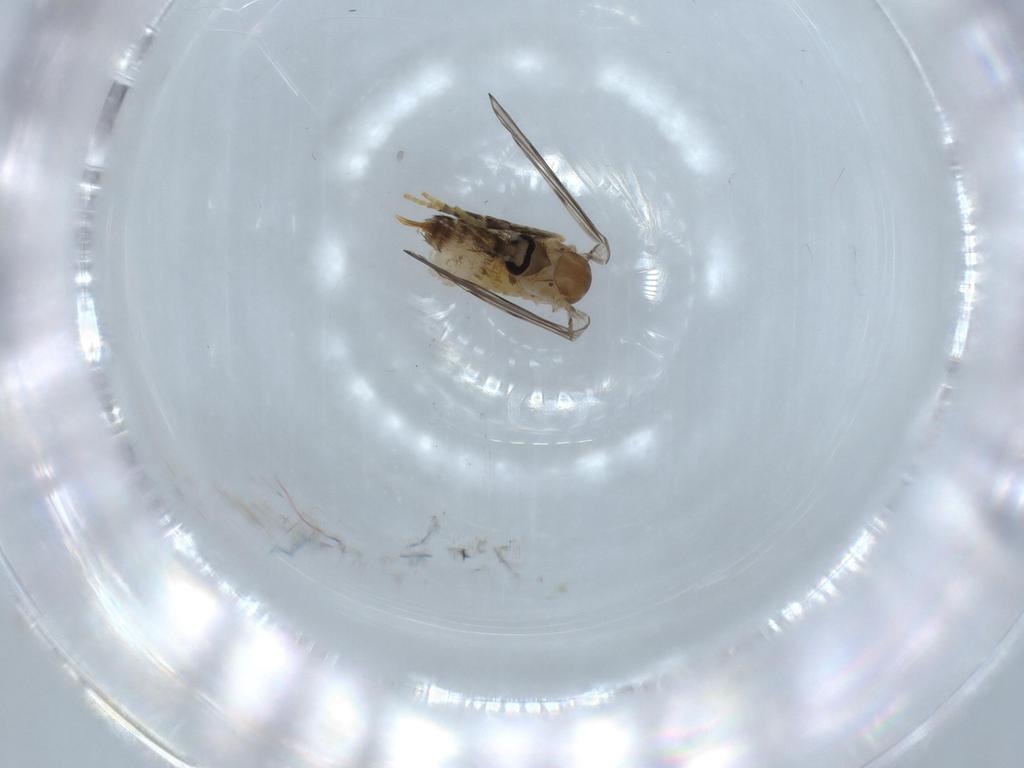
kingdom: Animalia
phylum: Arthropoda
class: Insecta
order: Diptera
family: Psychodidae
